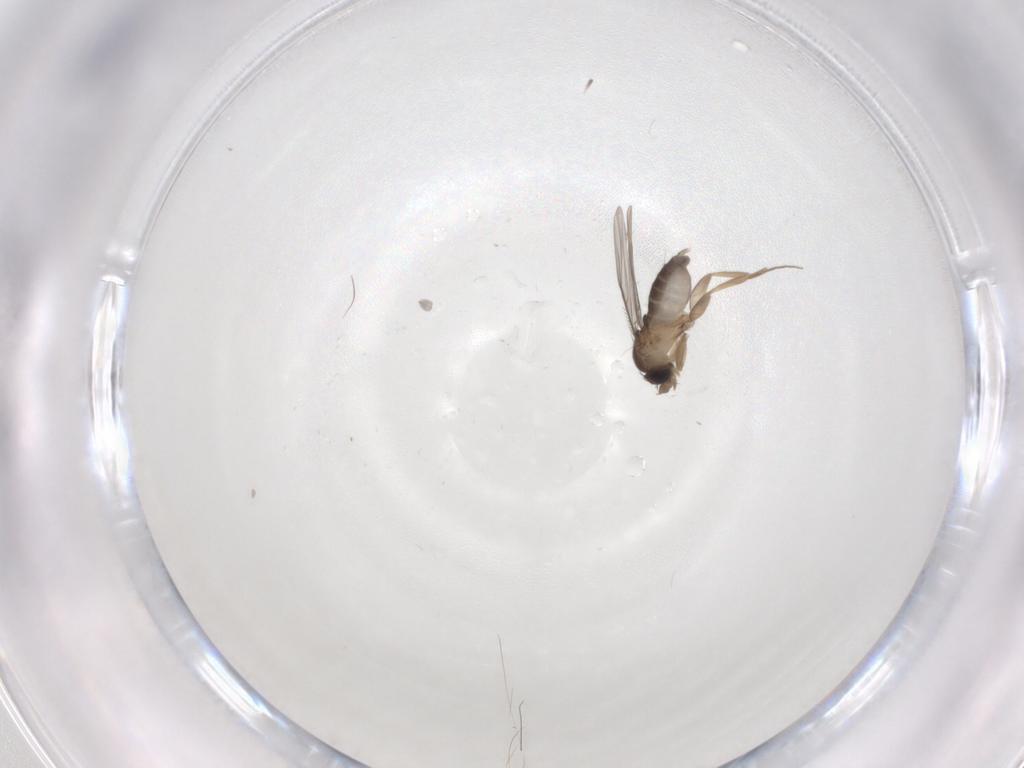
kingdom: Animalia
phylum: Arthropoda
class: Insecta
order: Diptera
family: Phoridae
